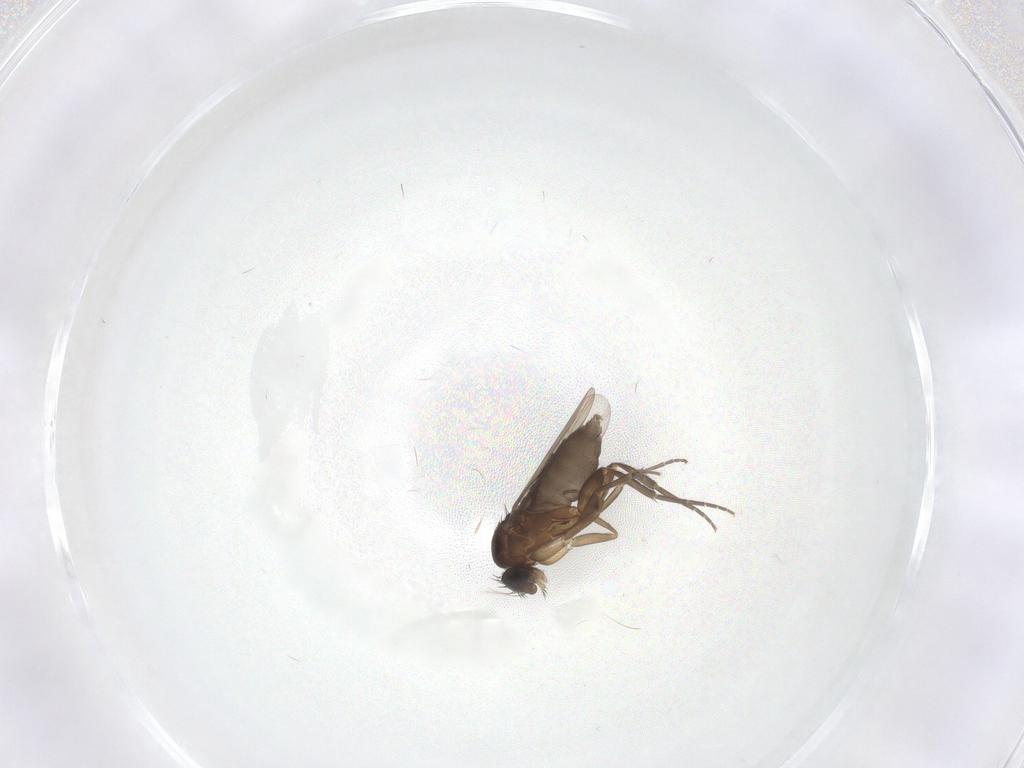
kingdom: Animalia
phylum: Arthropoda
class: Insecta
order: Diptera
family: Phoridae
